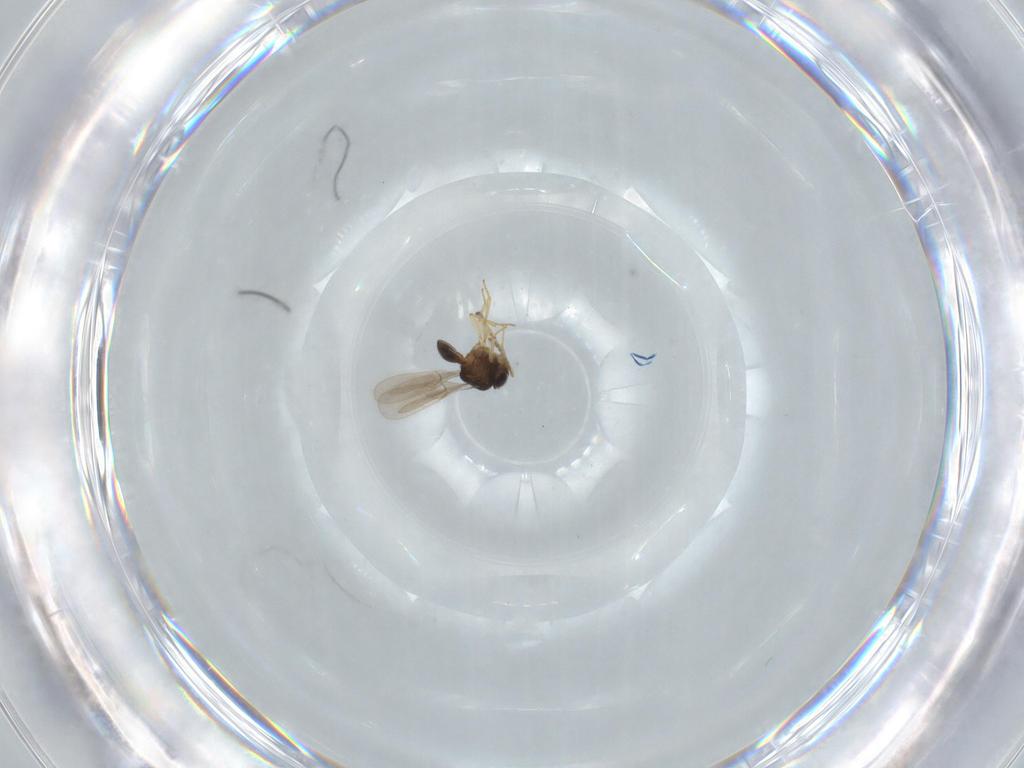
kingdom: Animalia
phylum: Arthropoda
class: Insecta
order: Hymenoptera
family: Scelionidae
